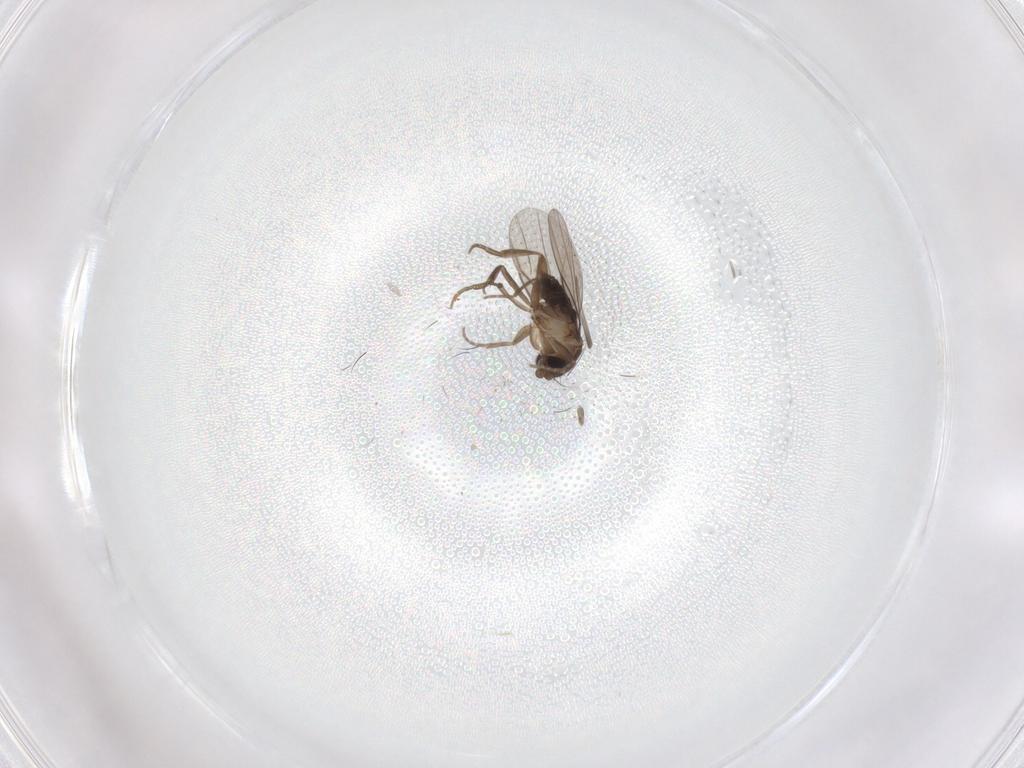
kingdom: Animalia
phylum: Arthropoda
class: Insecta
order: Diptera
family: Phoridae
